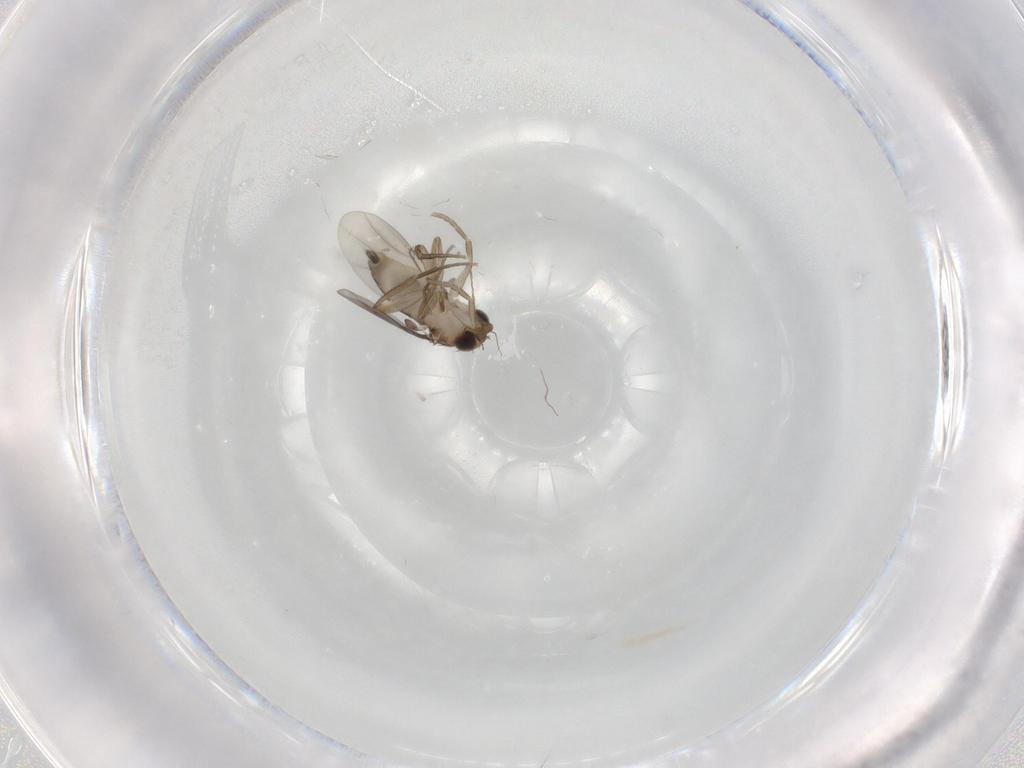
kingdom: Animalia
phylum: Arthropoda
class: Insecta
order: Diptera
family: Phoridae
